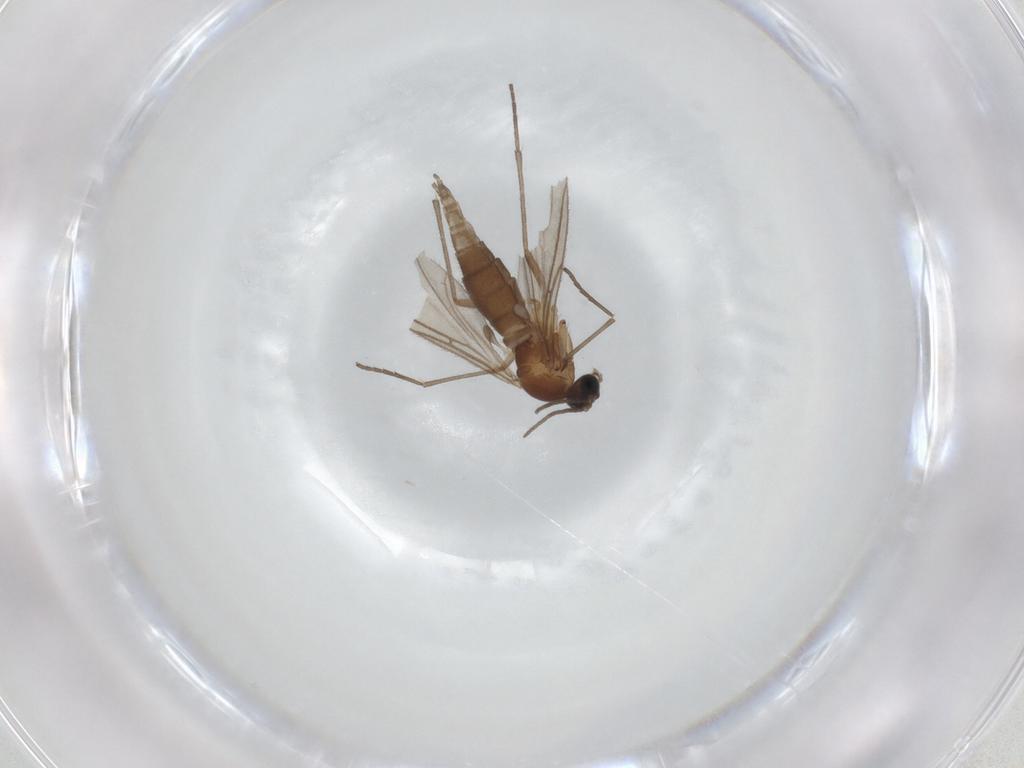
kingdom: Animalia
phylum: Arthropoda
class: Insecta
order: Diptera
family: Sciaridae
